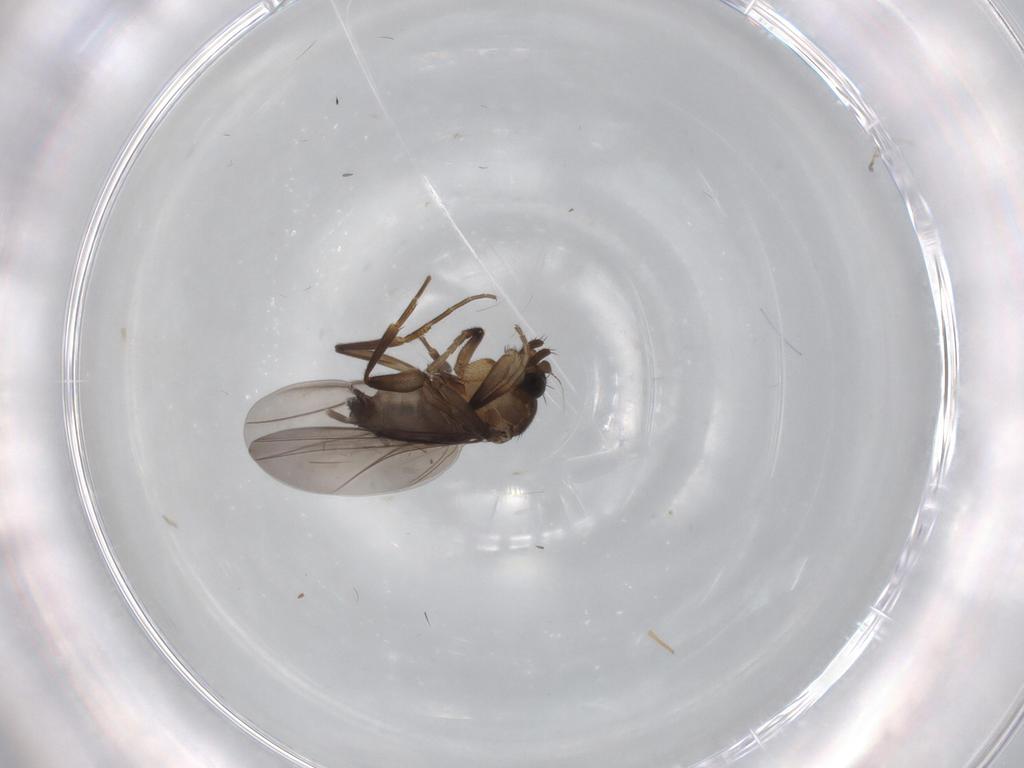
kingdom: Animalia
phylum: Arthropoda
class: Insecta
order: Diptera
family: Phoridae
